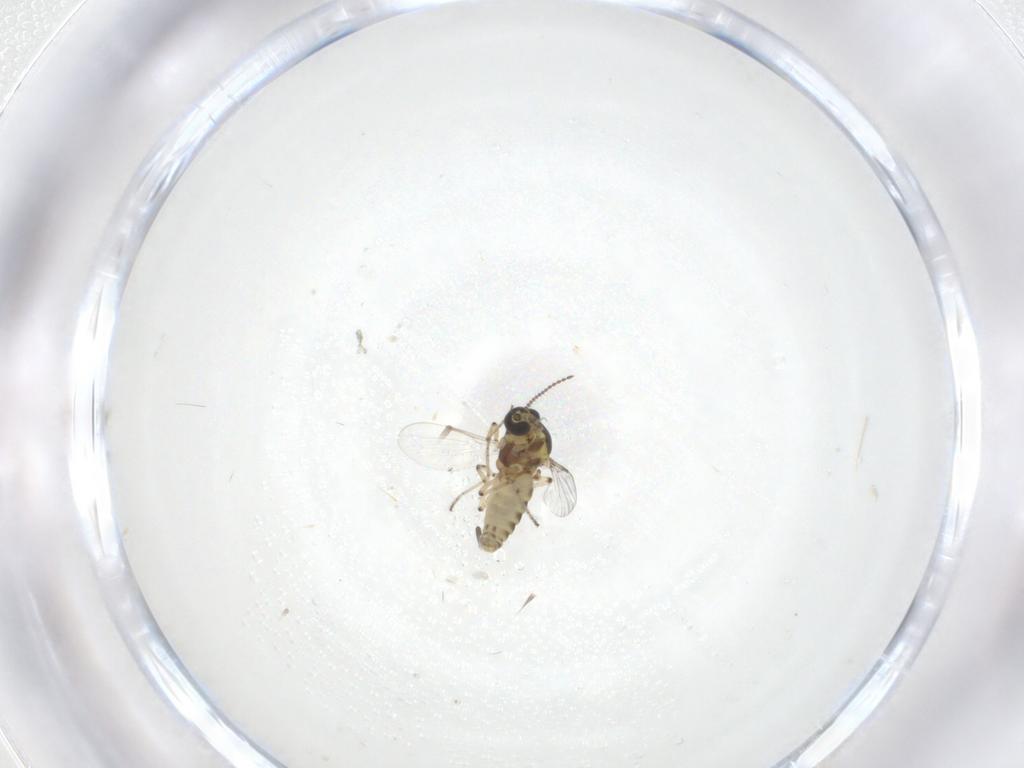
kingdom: Animalia
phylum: Arthropoda
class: Insecta
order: Diptera
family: Ceratopogonidae
